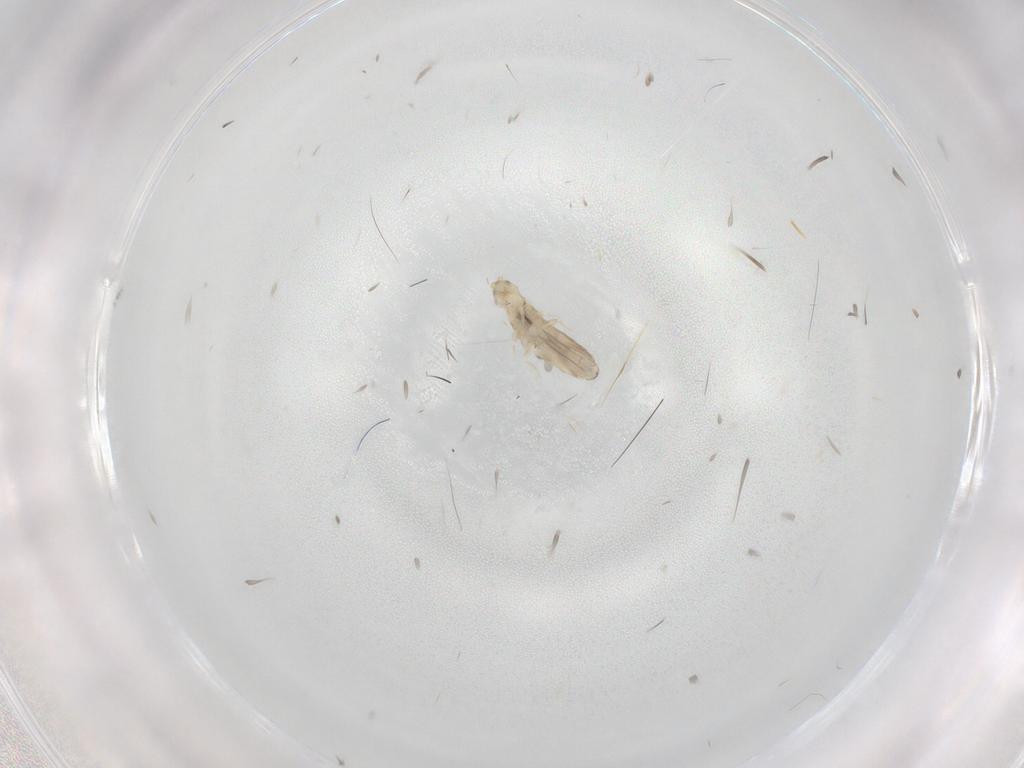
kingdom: Animalia
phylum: Arthropoda
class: Collembola
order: Entomobryomorpha
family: Entomobryidae
